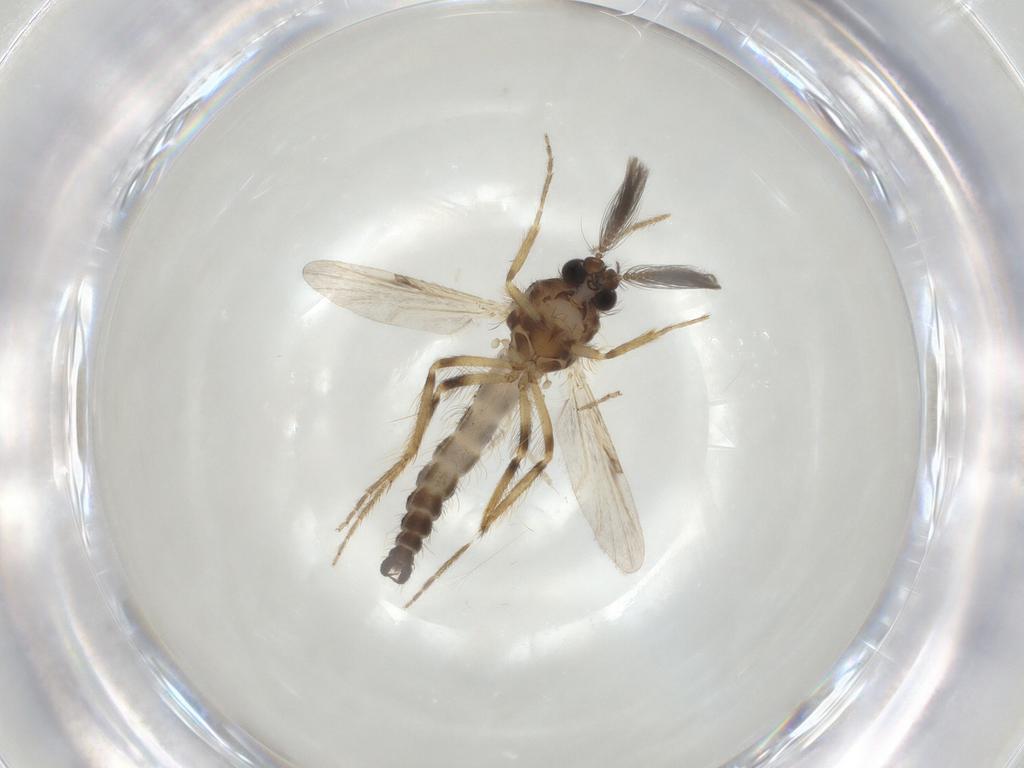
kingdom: Animalia
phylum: Arthropoda
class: Insecta
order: Diptera
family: Ceratopogonidae
